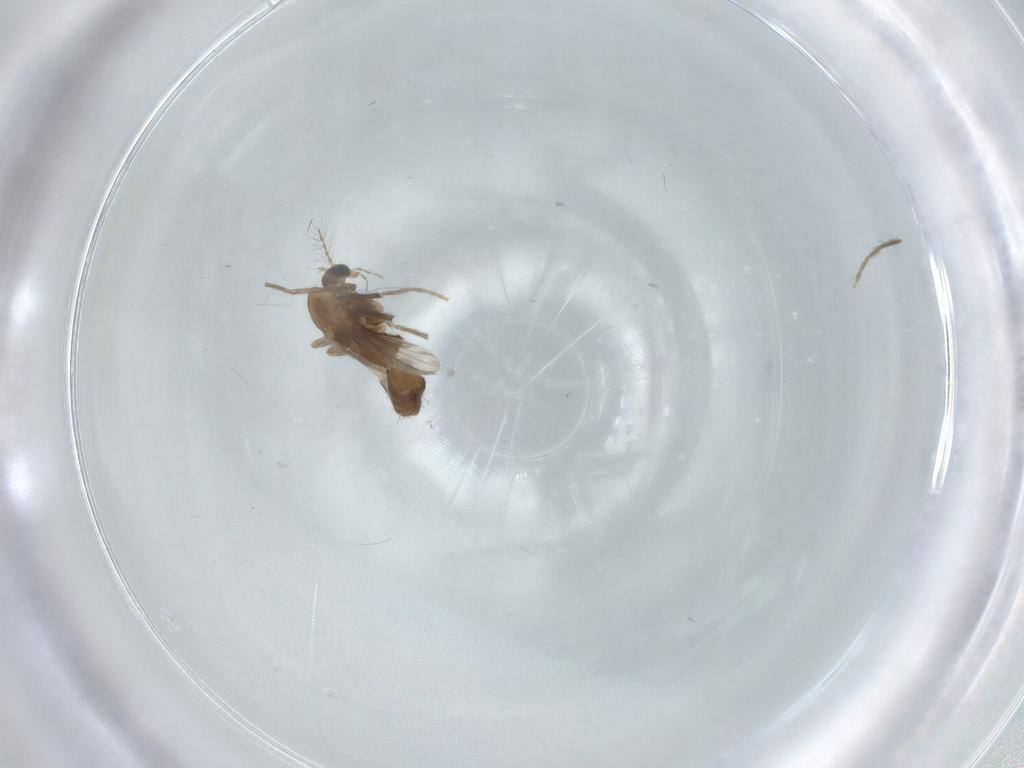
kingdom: Animalia
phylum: Arthropoda
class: Insecta
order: Diptera
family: Chironomidae
